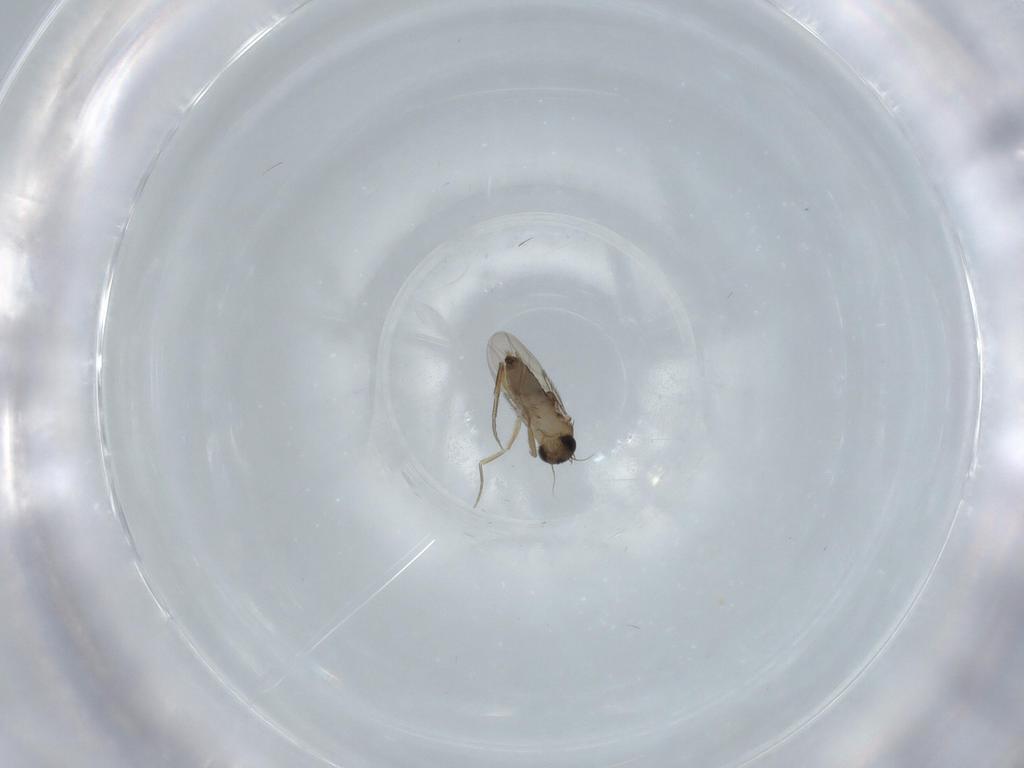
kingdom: Animalia
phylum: Arthropoda
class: Insecta
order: Diptera
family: Phoridae
